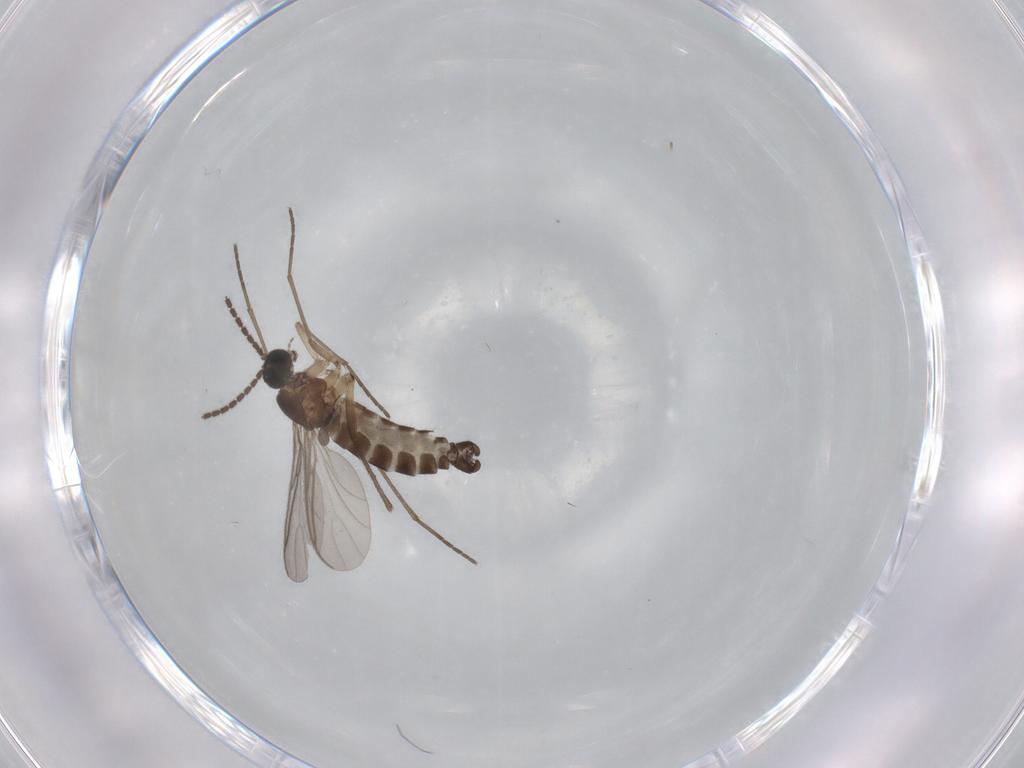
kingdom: Animalia
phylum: Arthropoda
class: Insecta
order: Diptera
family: Sciaridae
